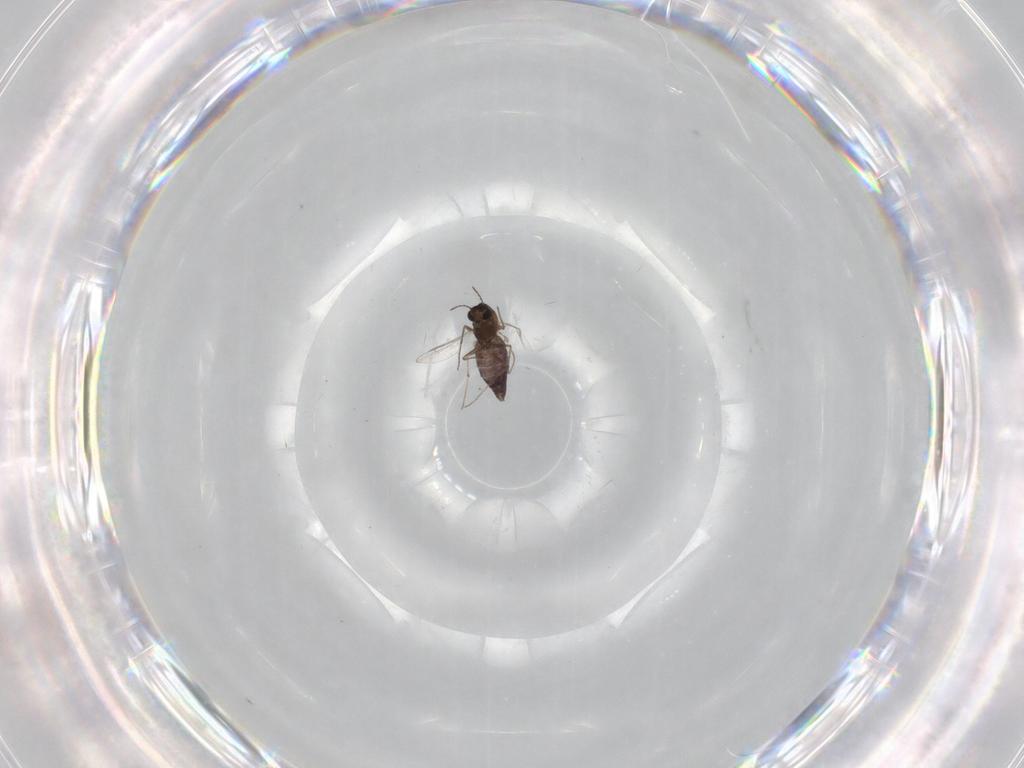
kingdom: Animalia
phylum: Arthropoda
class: Insecta
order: Diptera
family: Chironomidae
